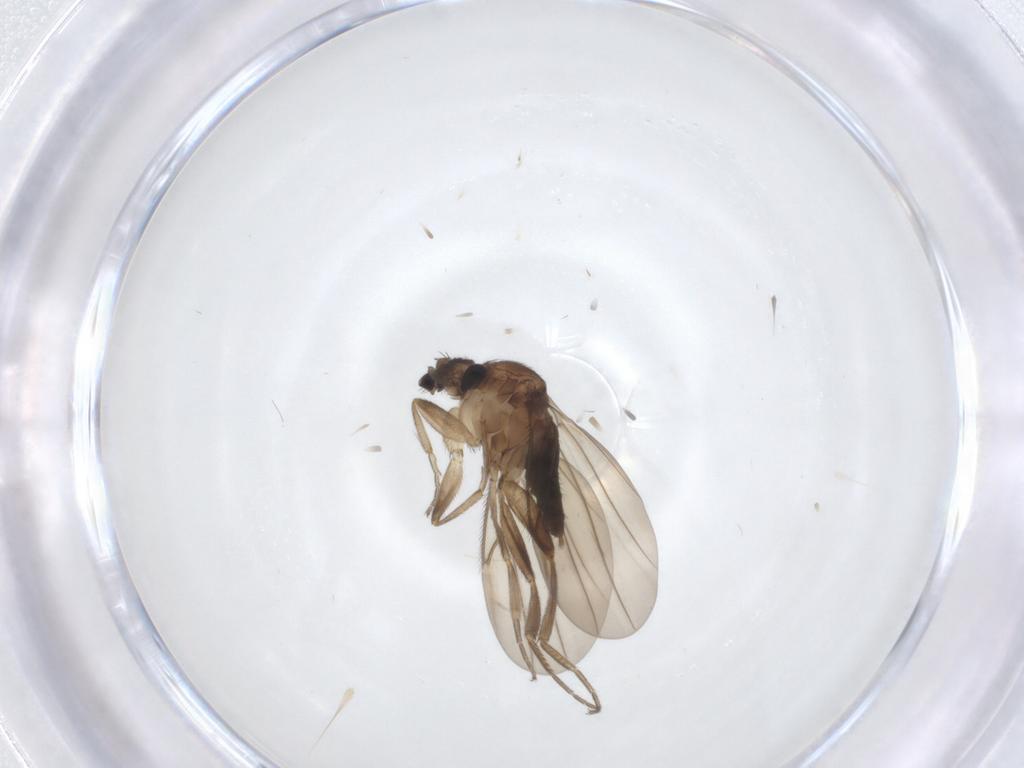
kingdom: Animalia
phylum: Arthropoda
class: Insecta
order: Diptera
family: Phoridae
